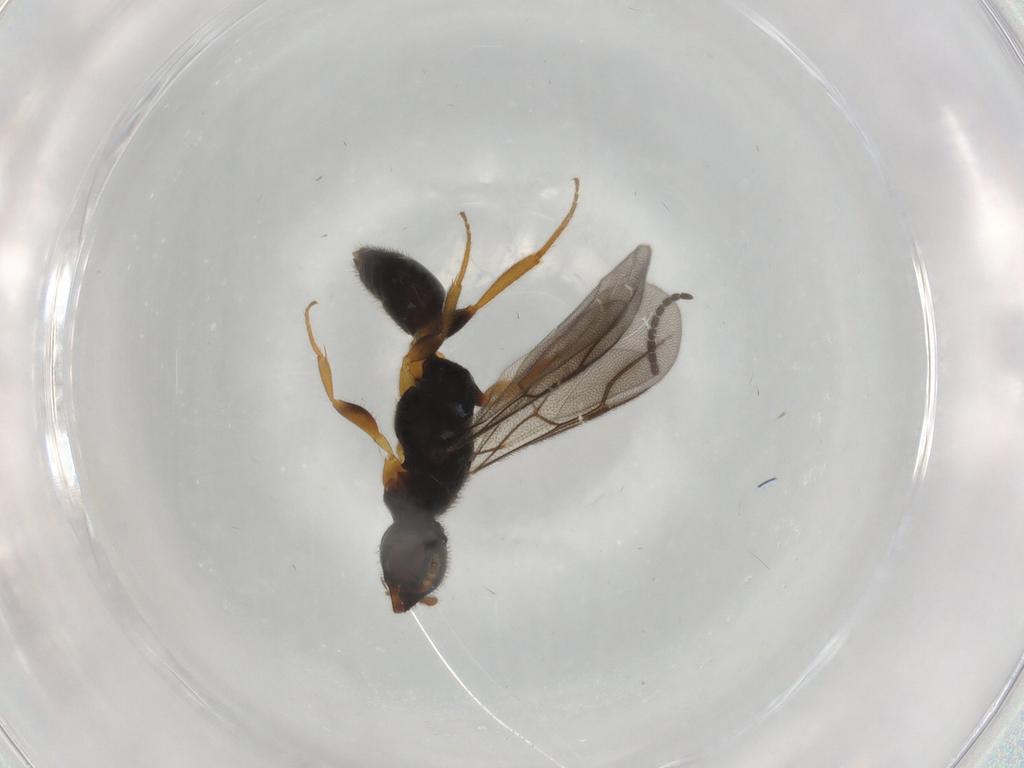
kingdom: Animalia
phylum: Arthropoda
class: Insecta
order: Hymenoptera
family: Bethylidae
